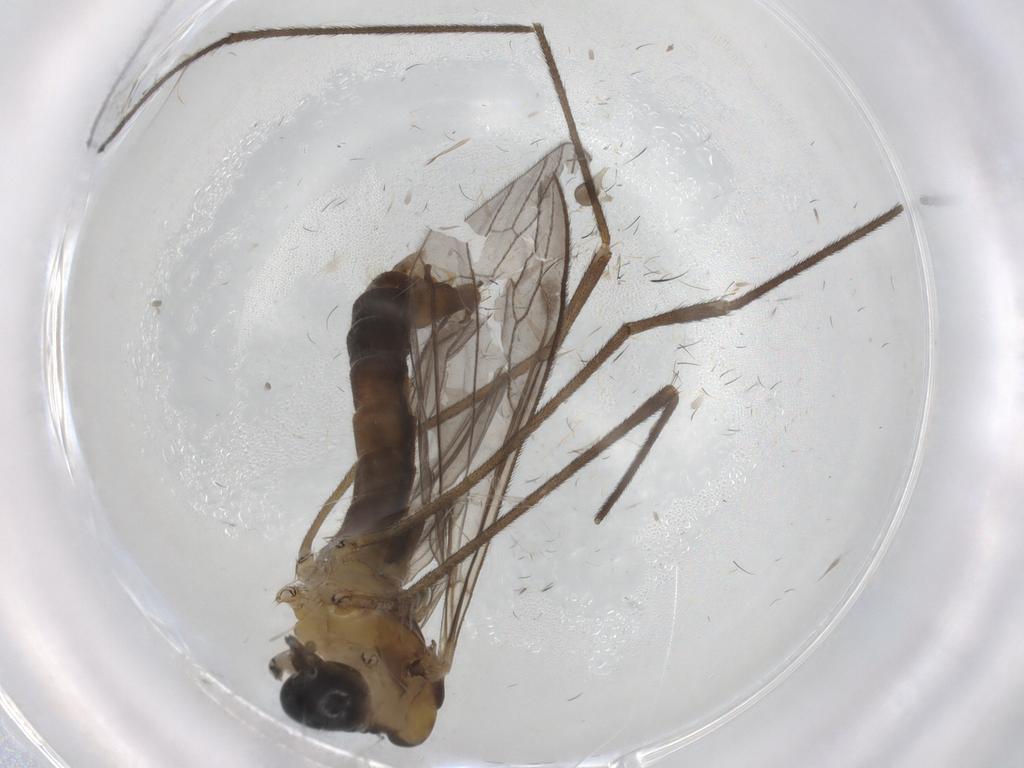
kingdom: Animalia
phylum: Arthropoda
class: Insecta
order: Diptera
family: Limoniidae
